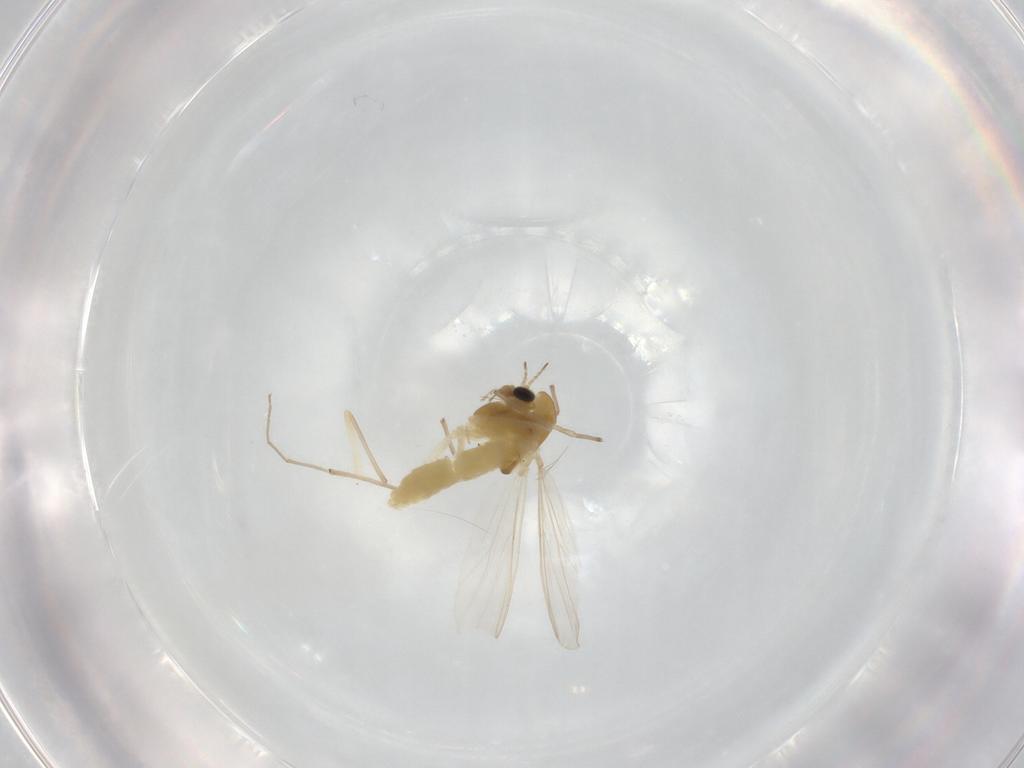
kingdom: Animalia
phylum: Arthropoda
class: Insecta
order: Diptera
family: Chironomidae
